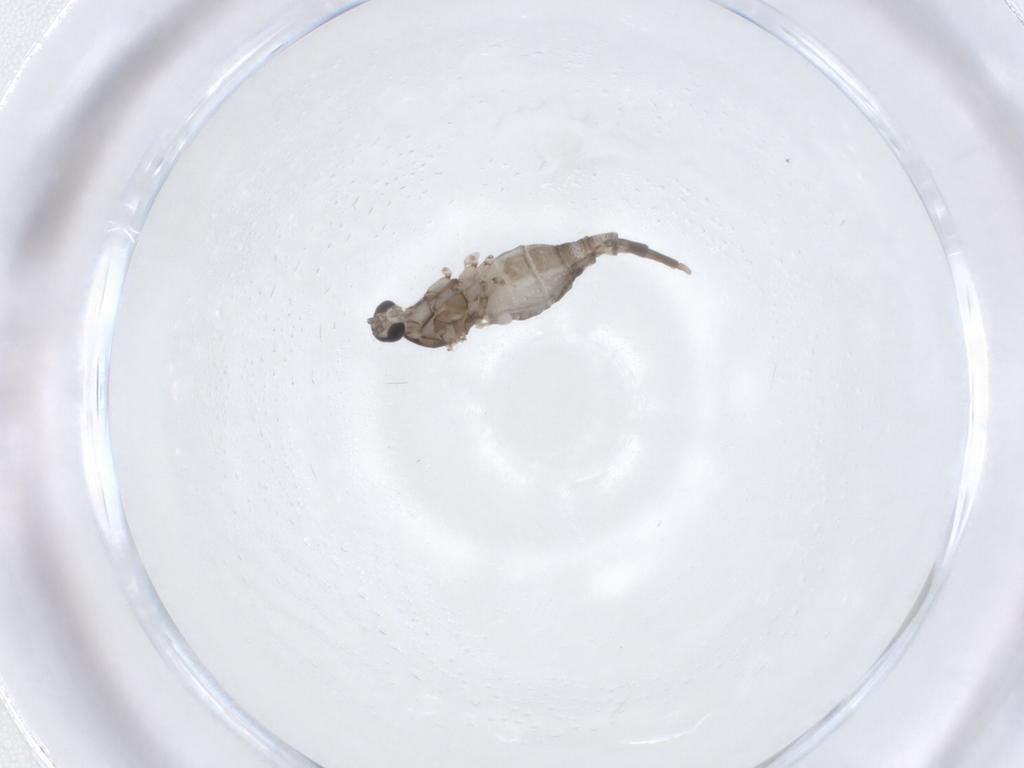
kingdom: Animalia
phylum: Arthropoda
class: Insecta
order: Diptera
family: Cecidomyiidae
